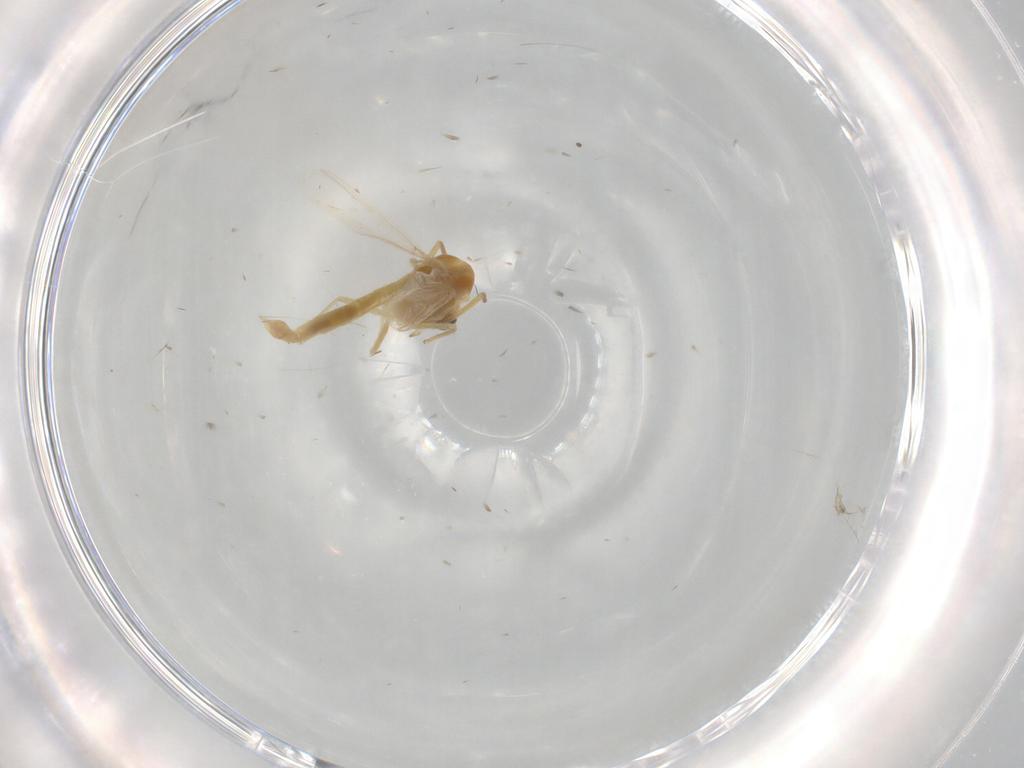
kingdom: Animalia
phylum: Arthropoda
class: Insecta
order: Diptera
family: Chironomidae
